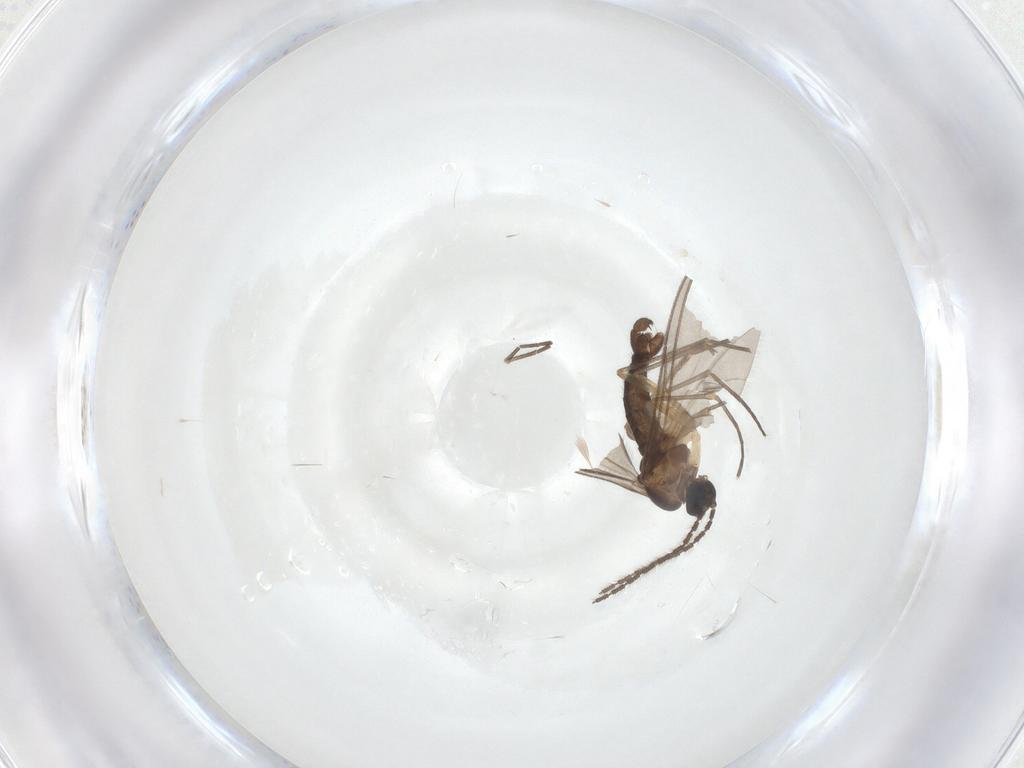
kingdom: Animalia
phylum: Arthropoda
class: Insecta
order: Diptera
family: Sciaridae
